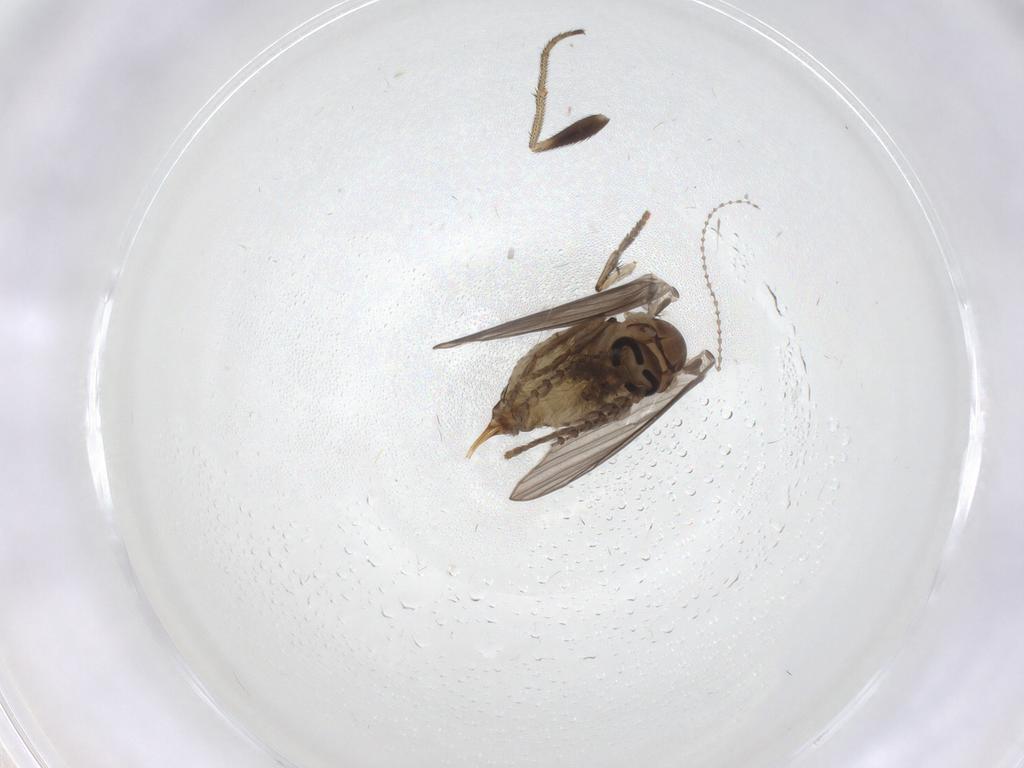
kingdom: Animalia
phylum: Arthropoda
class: Insecta
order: Diptera
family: Psychodidae
